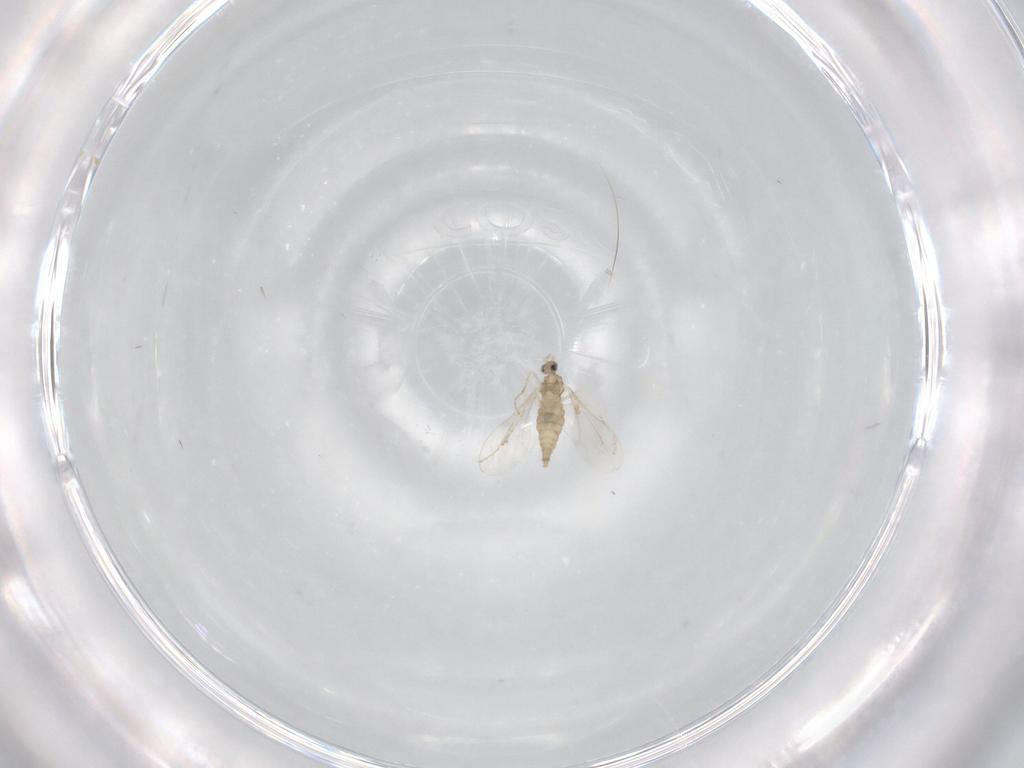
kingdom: Animalia
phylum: Arthropoda
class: Insecta
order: Diptera
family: Cecidomyiidae
